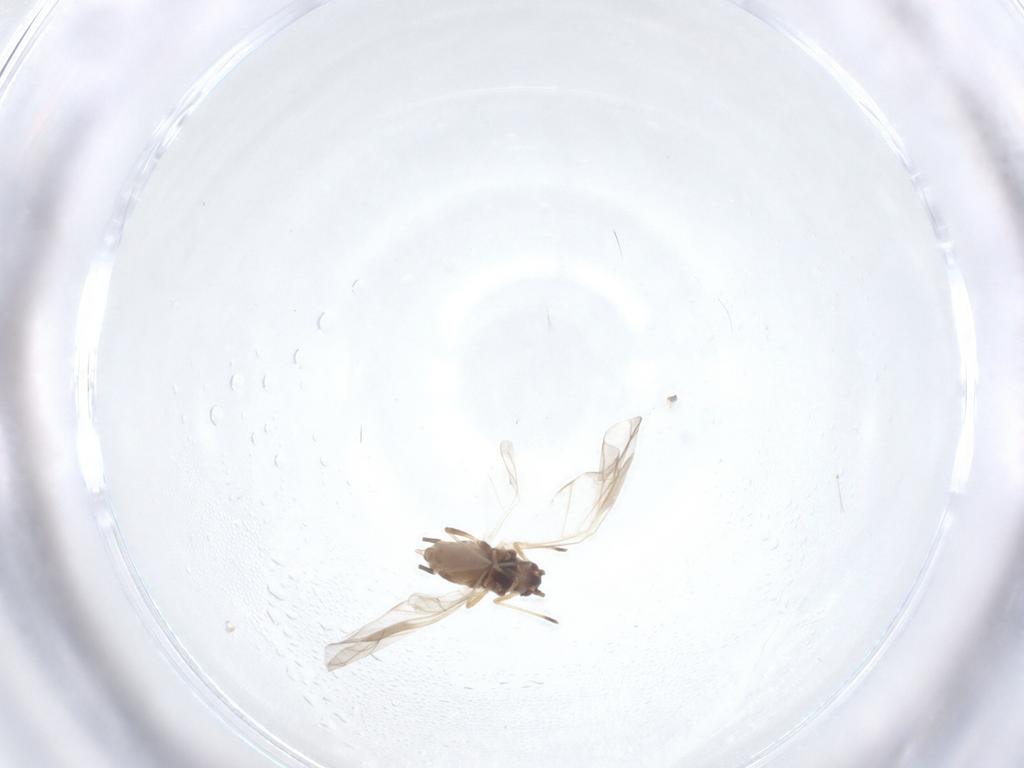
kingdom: Animalia
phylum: Arthropoda
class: Insecta
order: Hemiptera
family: Aphididae
